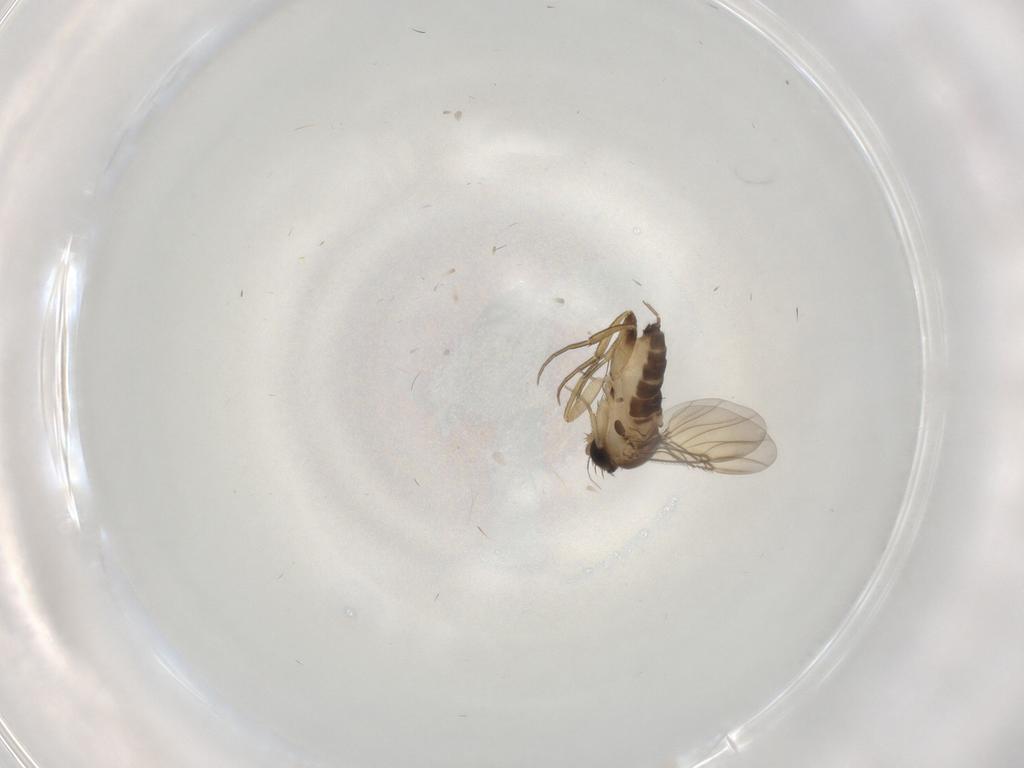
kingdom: Animalia
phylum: Arthropoda
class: Insecta
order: Diptera
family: Phoridae
